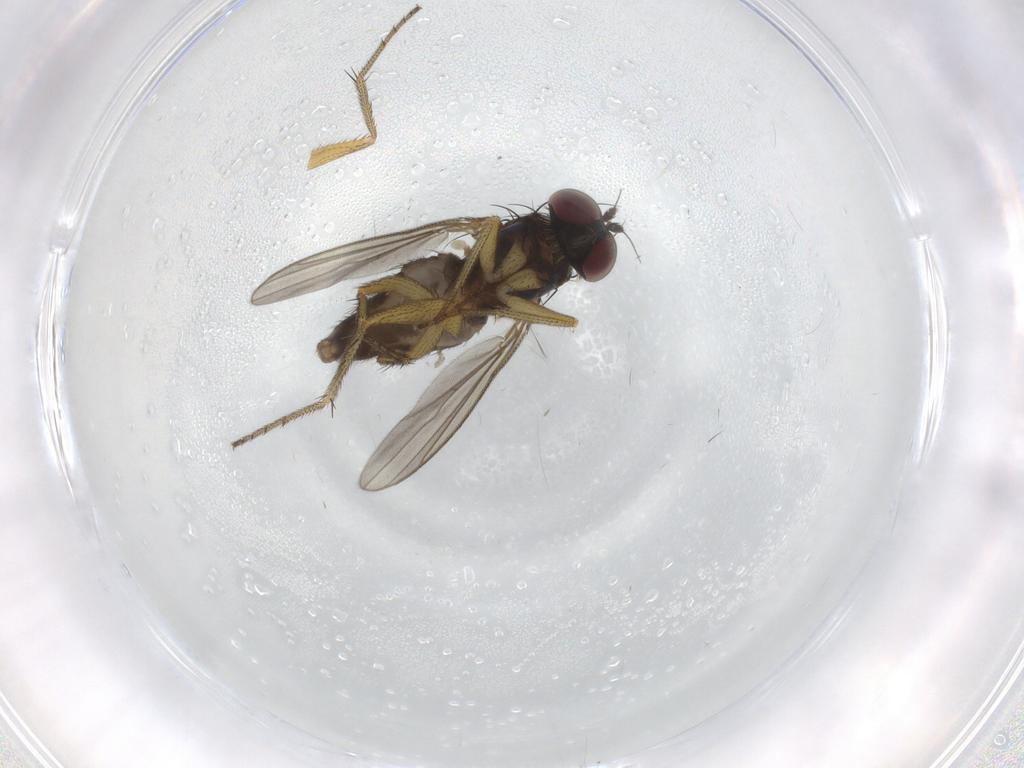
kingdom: Animalia
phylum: Arthropoda
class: Insecta
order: Diptera
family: Dolichopodidae
